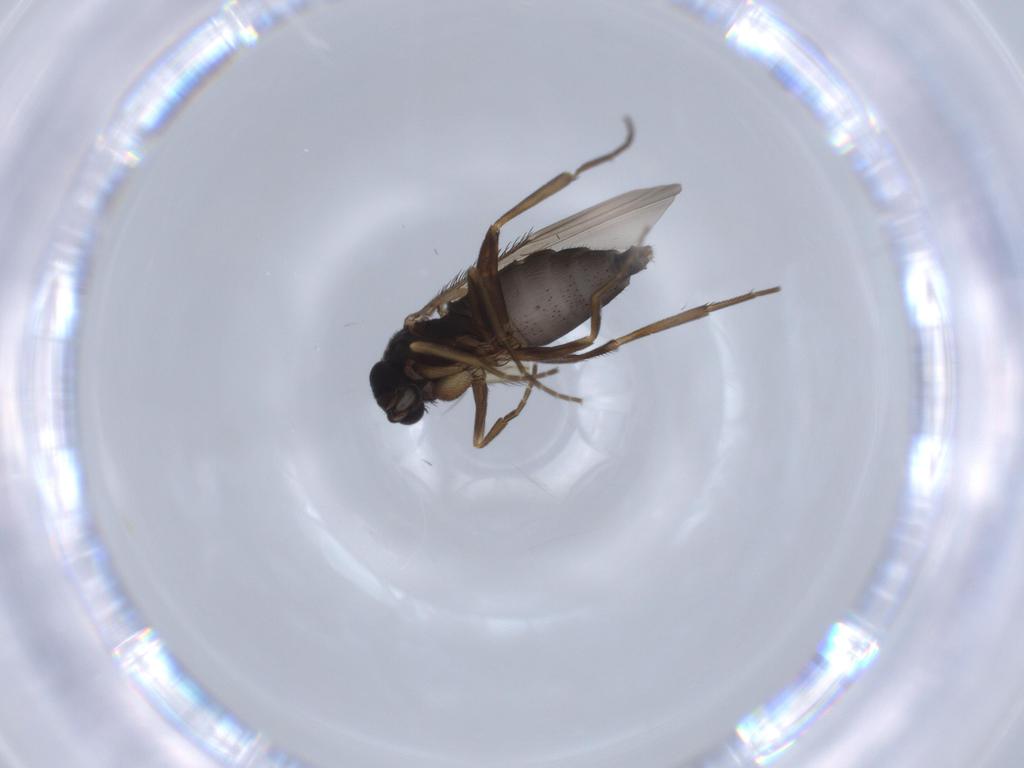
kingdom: Animalia
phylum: Arthropoda
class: Insecta
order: Diptera
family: Phoridae
